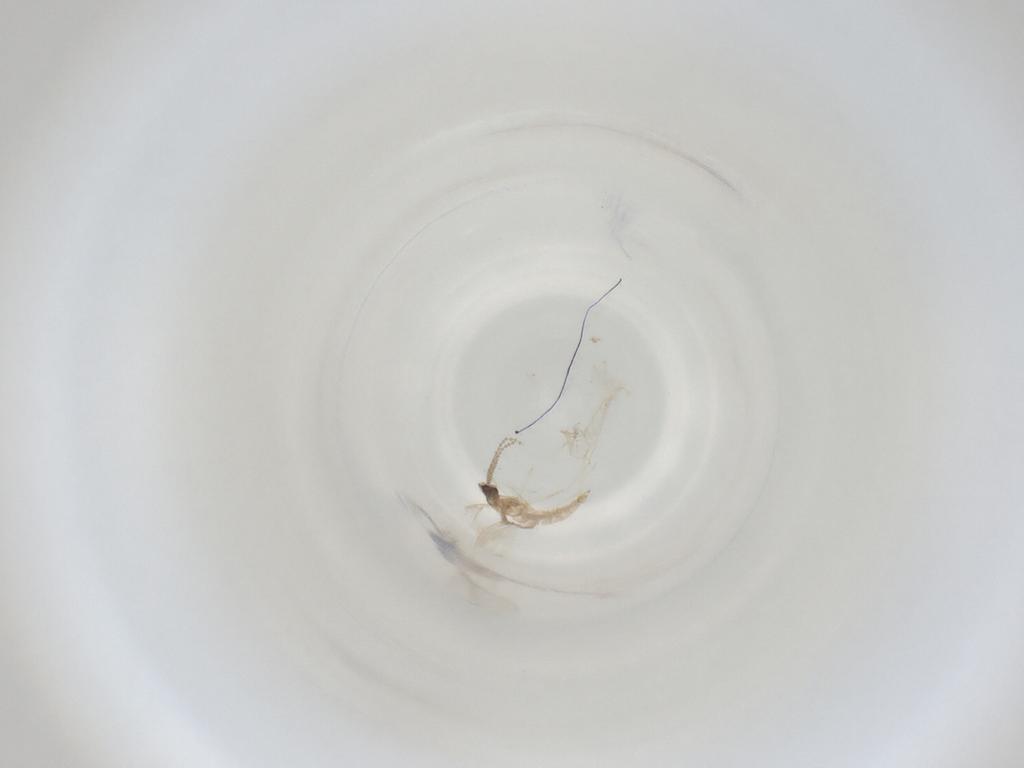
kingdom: Animalia
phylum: Arthropoda
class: Insecta
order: Diptera
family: Cecidomyiidae
